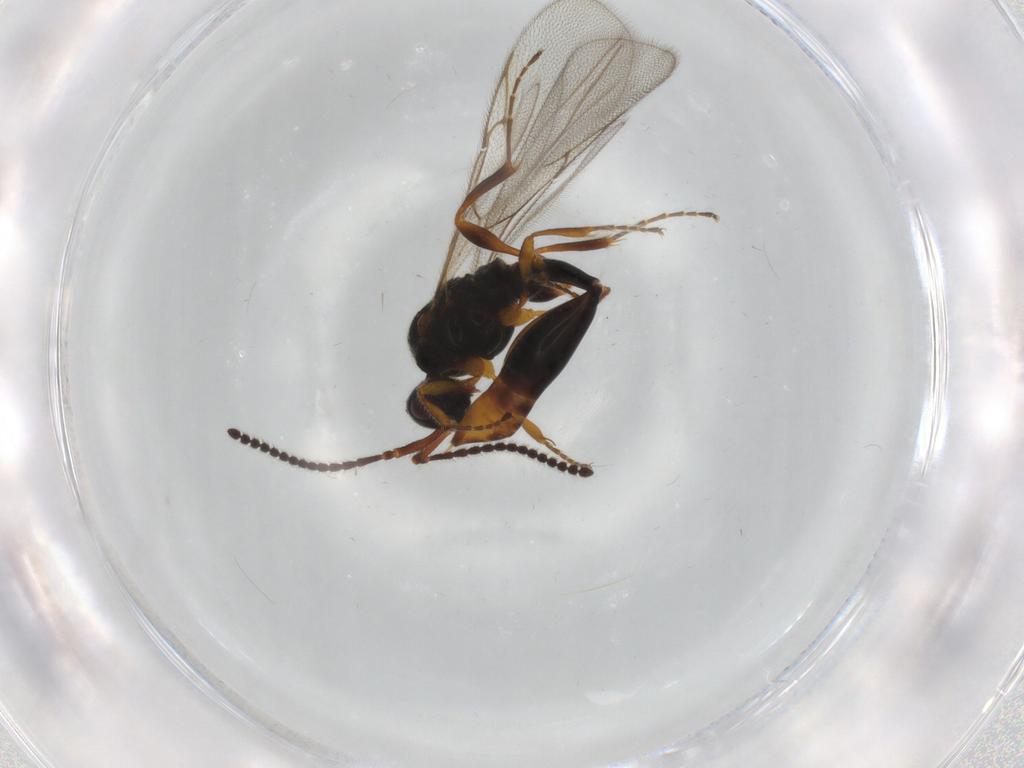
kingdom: Animalia
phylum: Arthropoda
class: Insecta
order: Hymenoptera
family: Diapriidae
